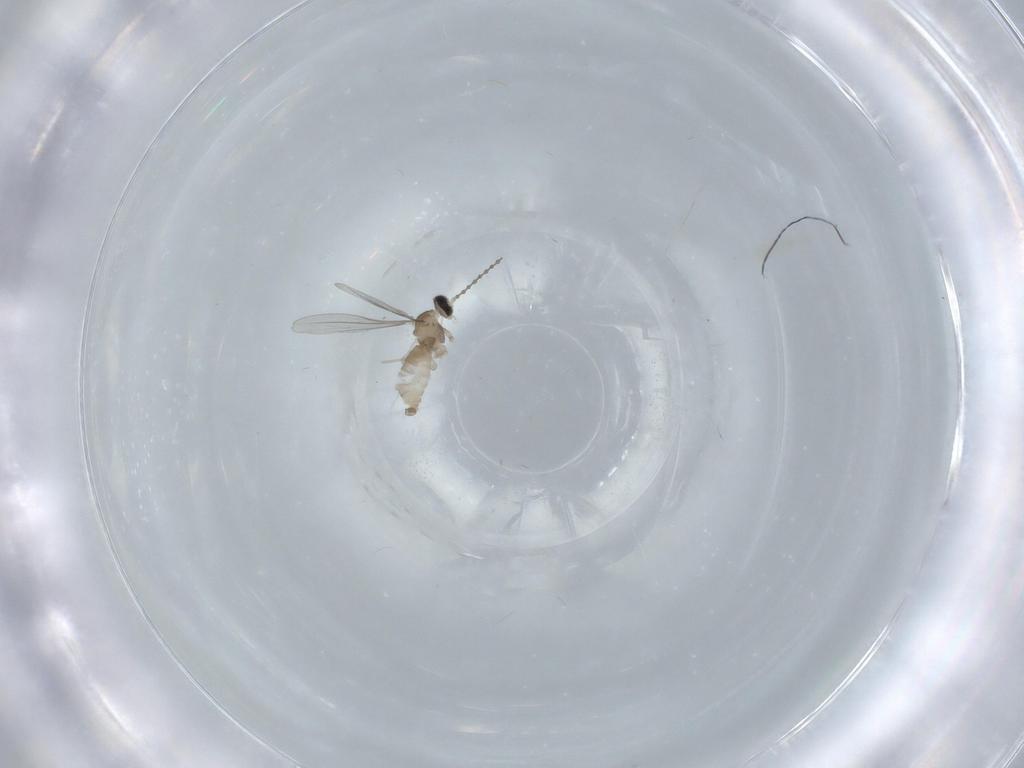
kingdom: Animalia
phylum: Arthropoda
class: Insecta
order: Diptera
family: Cecidomyiidae
